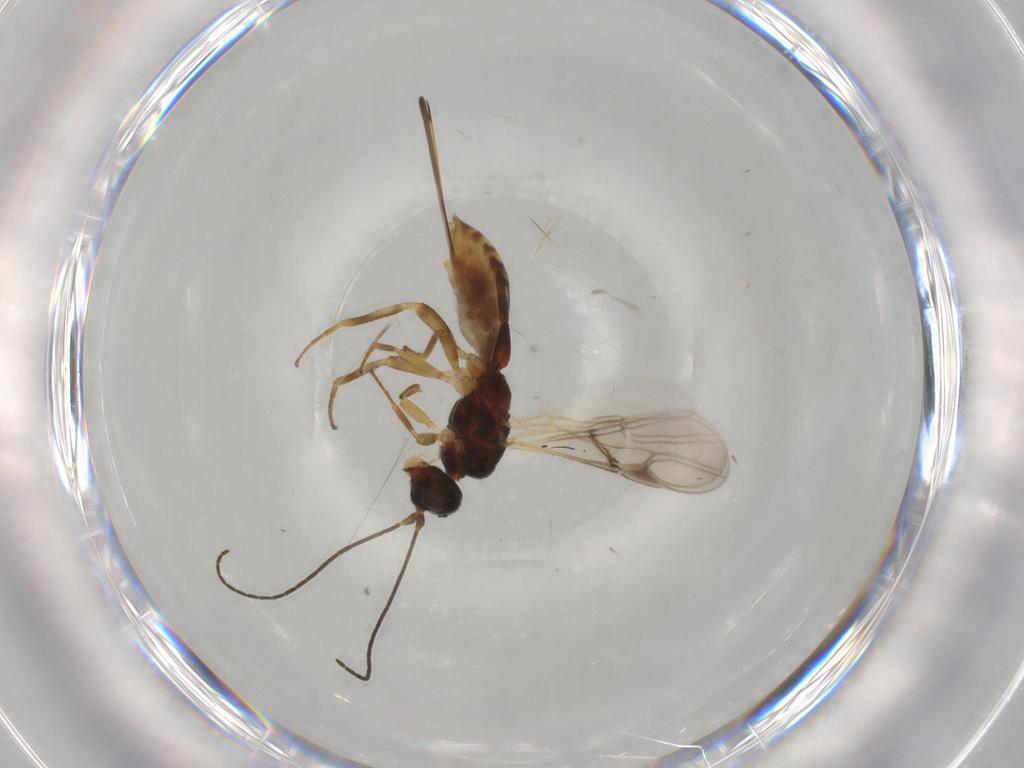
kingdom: Animalia
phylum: Arthropoda
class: Insecta
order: Hymenoptera
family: Braconidae
